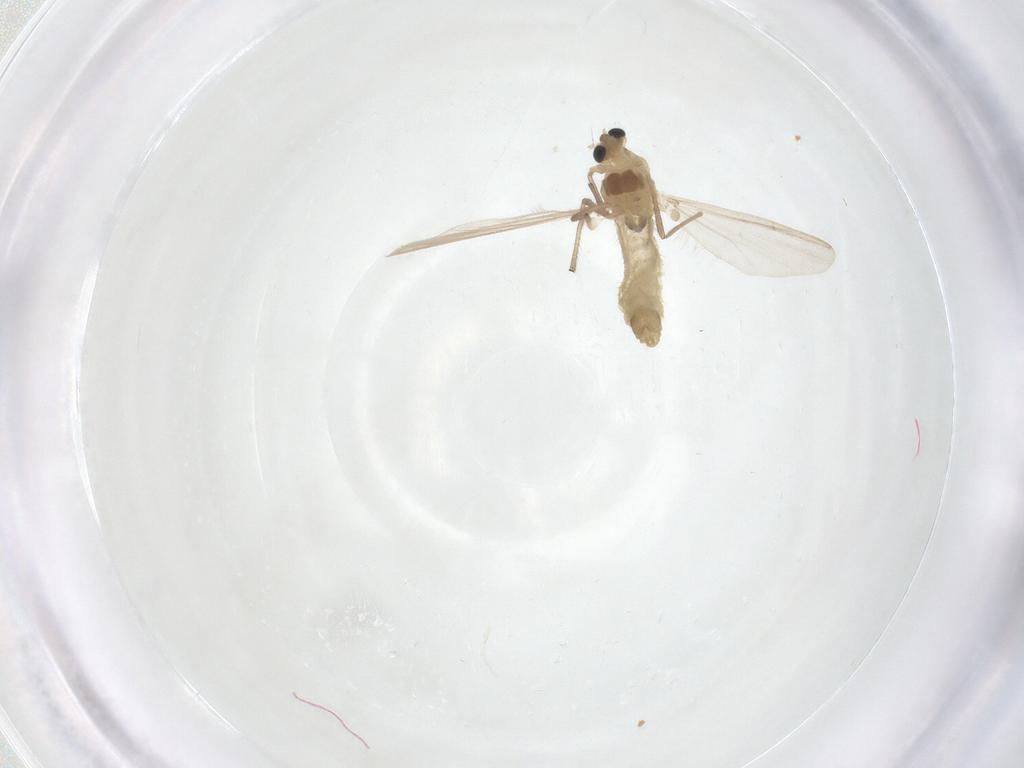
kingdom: Animalia
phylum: Arthropoda
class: Insecta
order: Diptera
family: Chironomidae
